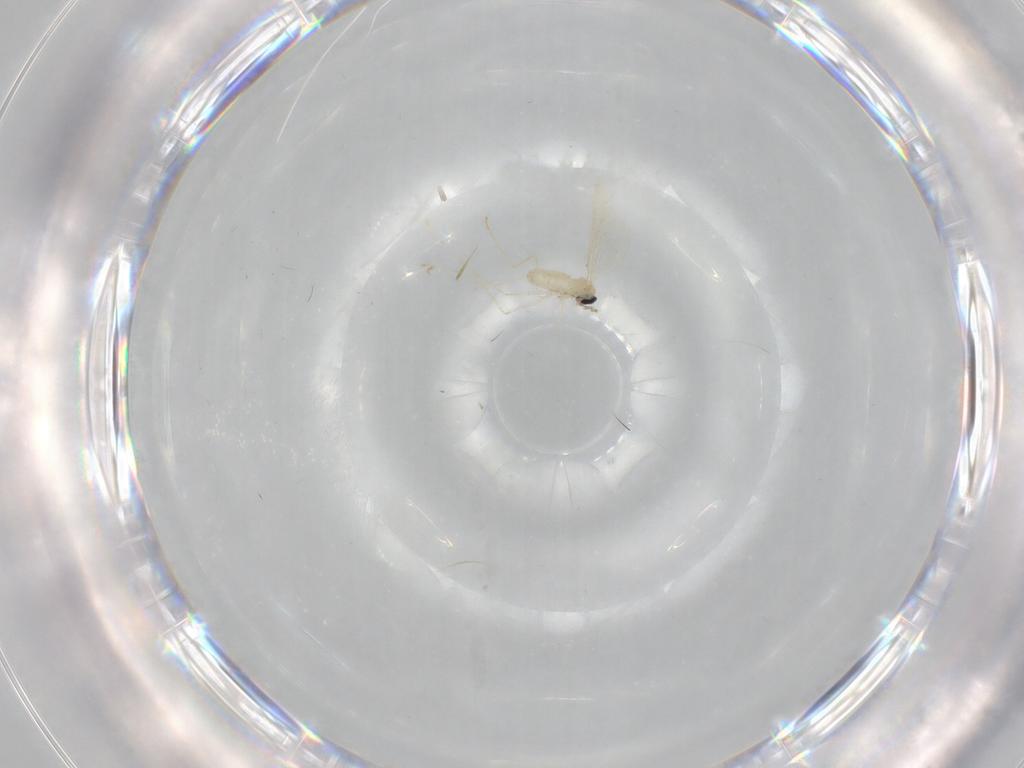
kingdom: Animalia
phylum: Arthropoda
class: Insecta
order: Diptera
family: Cecidomyiidae
